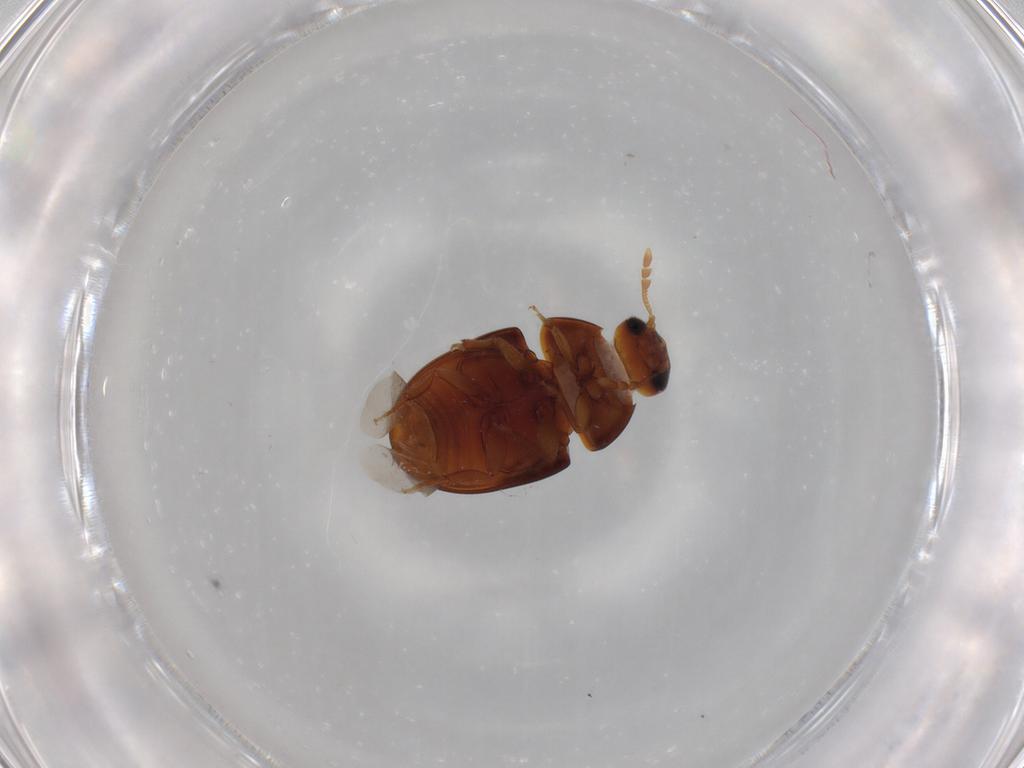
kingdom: Animalia
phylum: Arthropoda
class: Insecta
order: Coleoptera
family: Phalacridae
